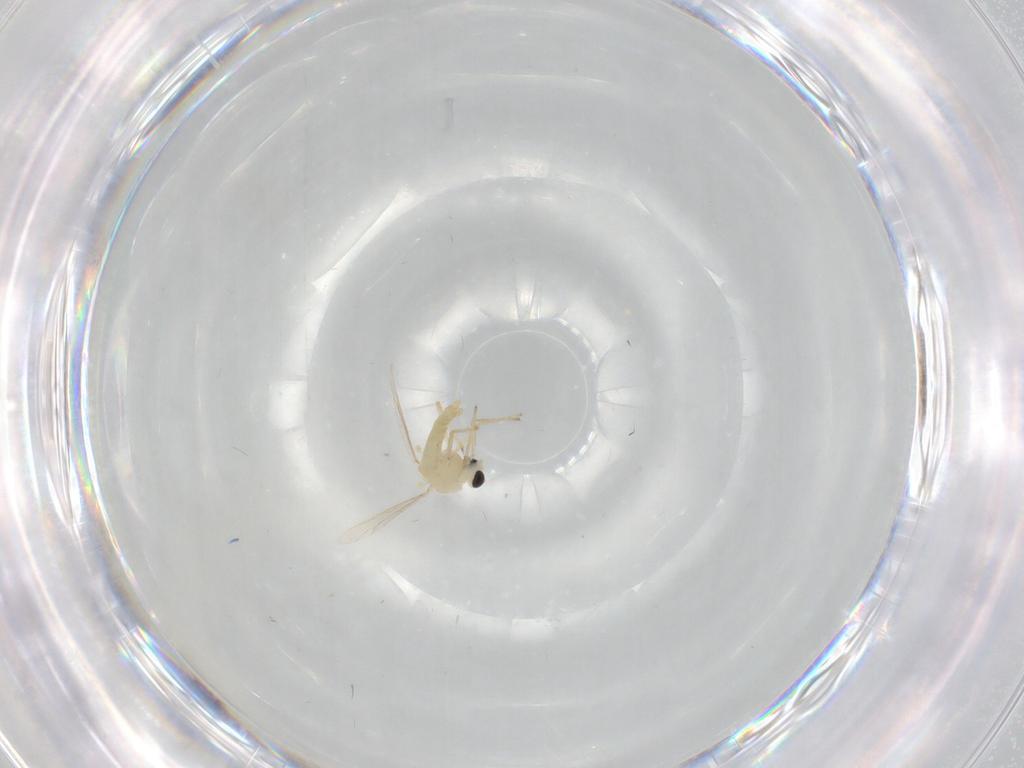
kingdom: Animalia
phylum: Arthropoda
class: Insecta
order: Diptera
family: Chironomidae
